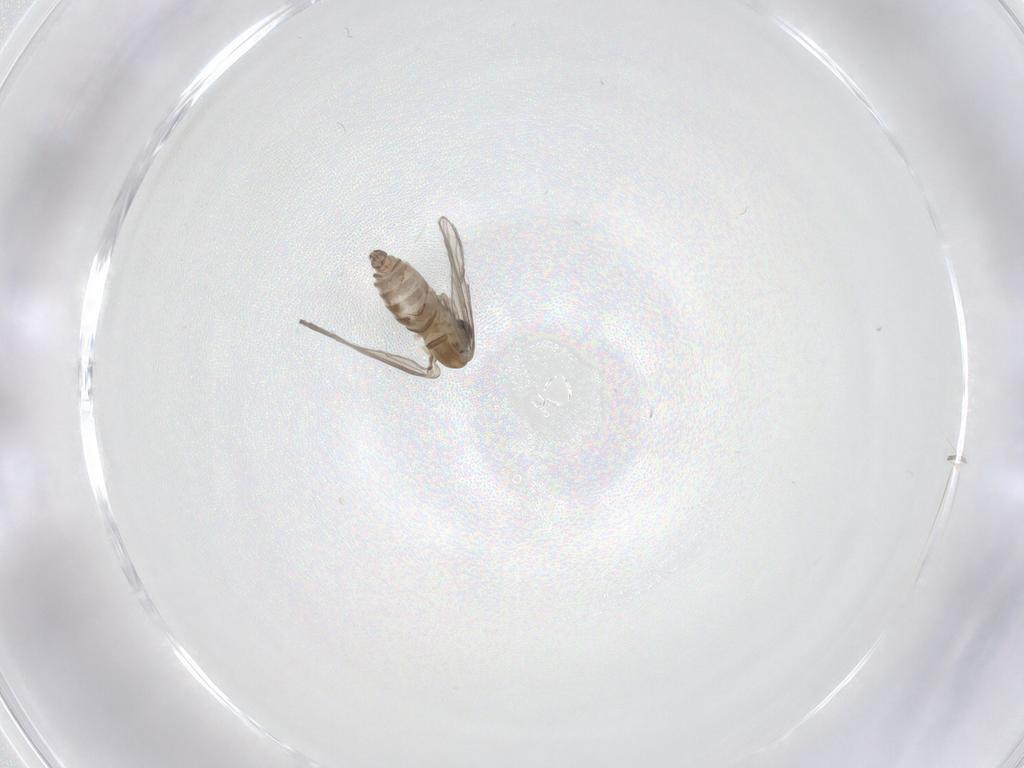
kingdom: Animalia
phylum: Arthropoda
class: Insecta
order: Diptera
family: Psychodidae
